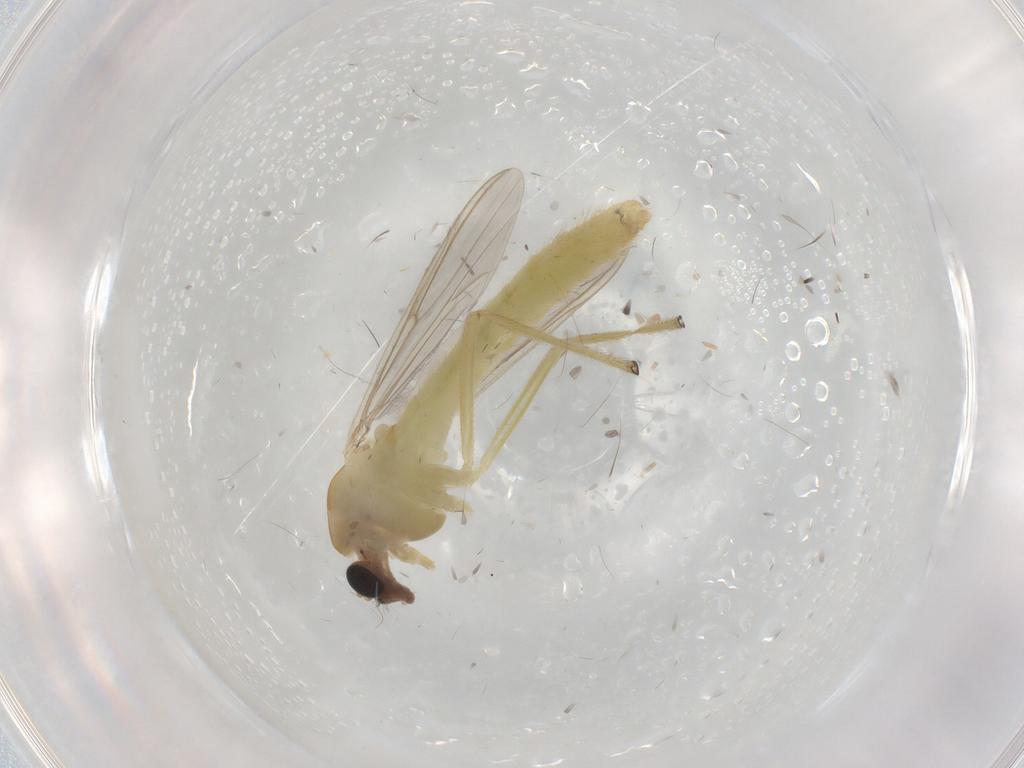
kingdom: Animalia
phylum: Arthropoda
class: Insecta
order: Diptera
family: Chironomidae
